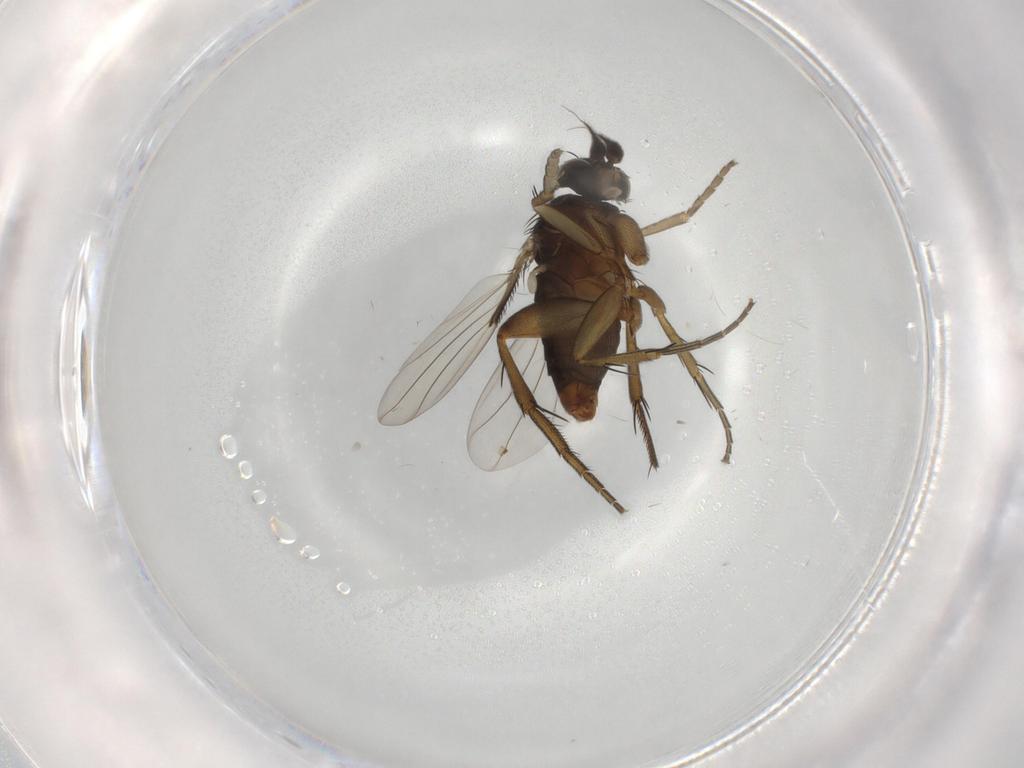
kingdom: Animalia
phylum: Arthropoda
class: Insecta
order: Diptera
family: Phoridae
